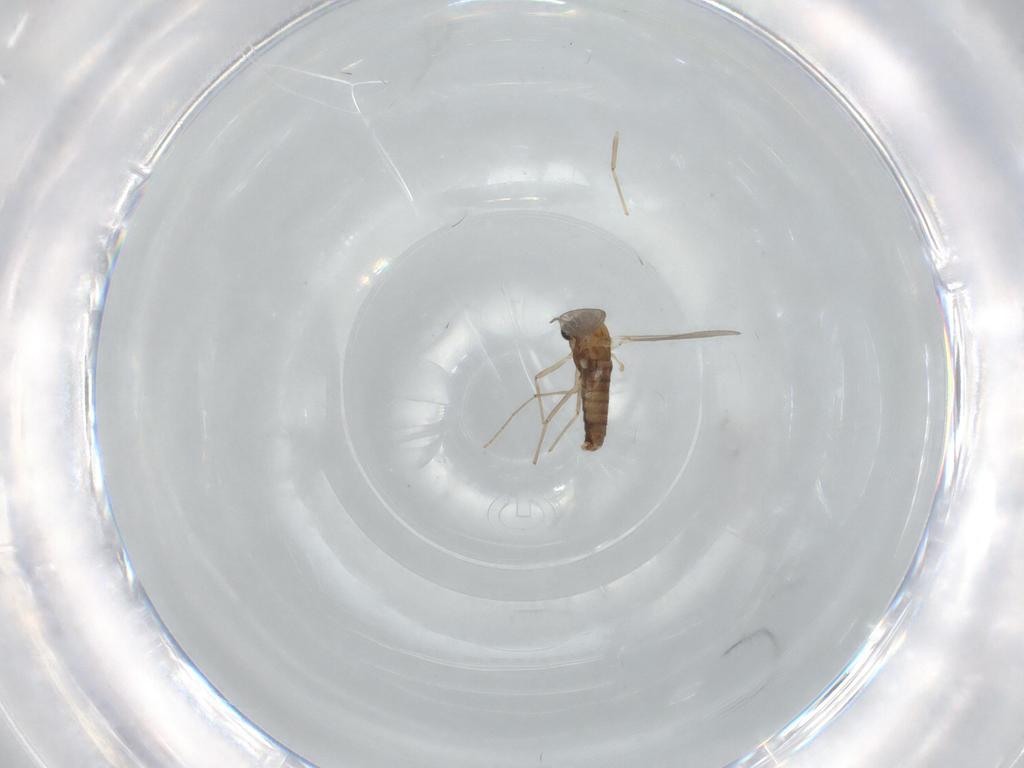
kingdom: Animalia
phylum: Arthropoda
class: Insecta
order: Diptera
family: Chironomidae
